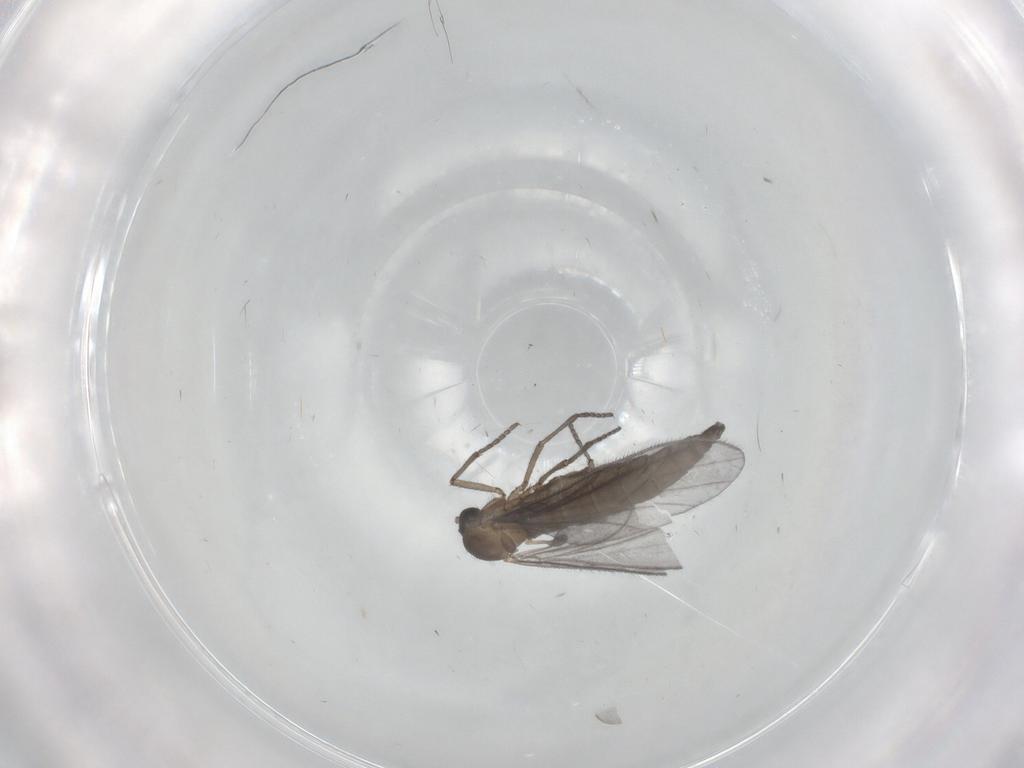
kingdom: Animalia
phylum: Arthropoda
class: Insecta
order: Diptera
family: Sciaridae
